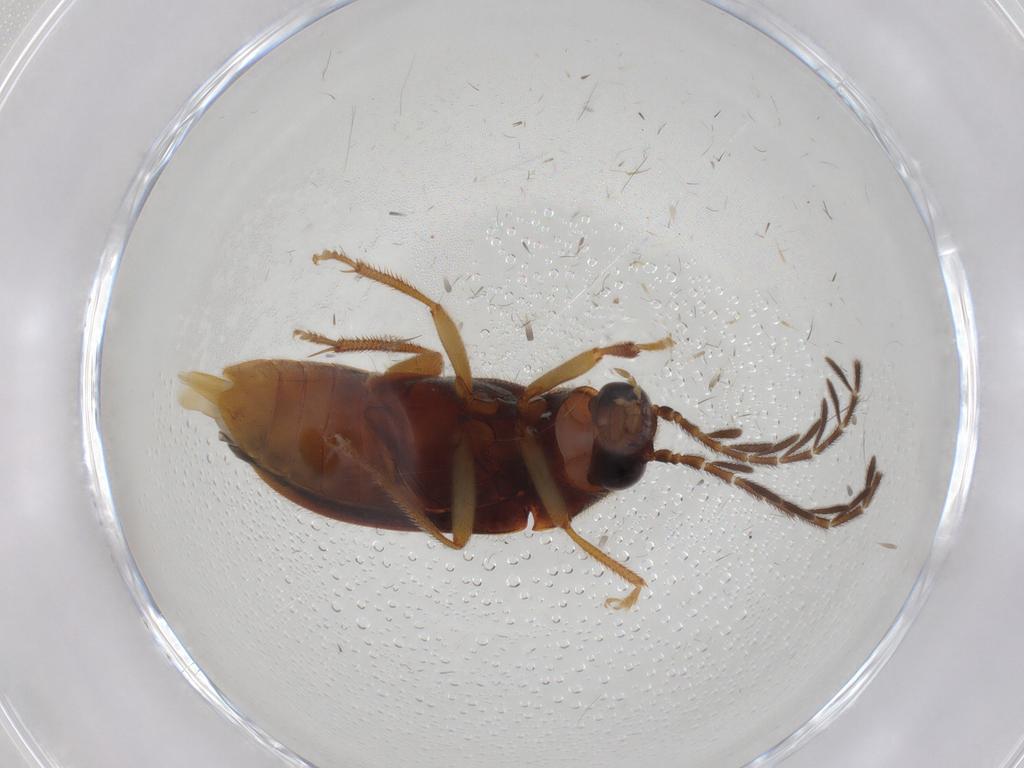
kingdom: Animalia
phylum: Arthropoda
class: Insecta
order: Coleoptera
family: Ptilodactylidae
